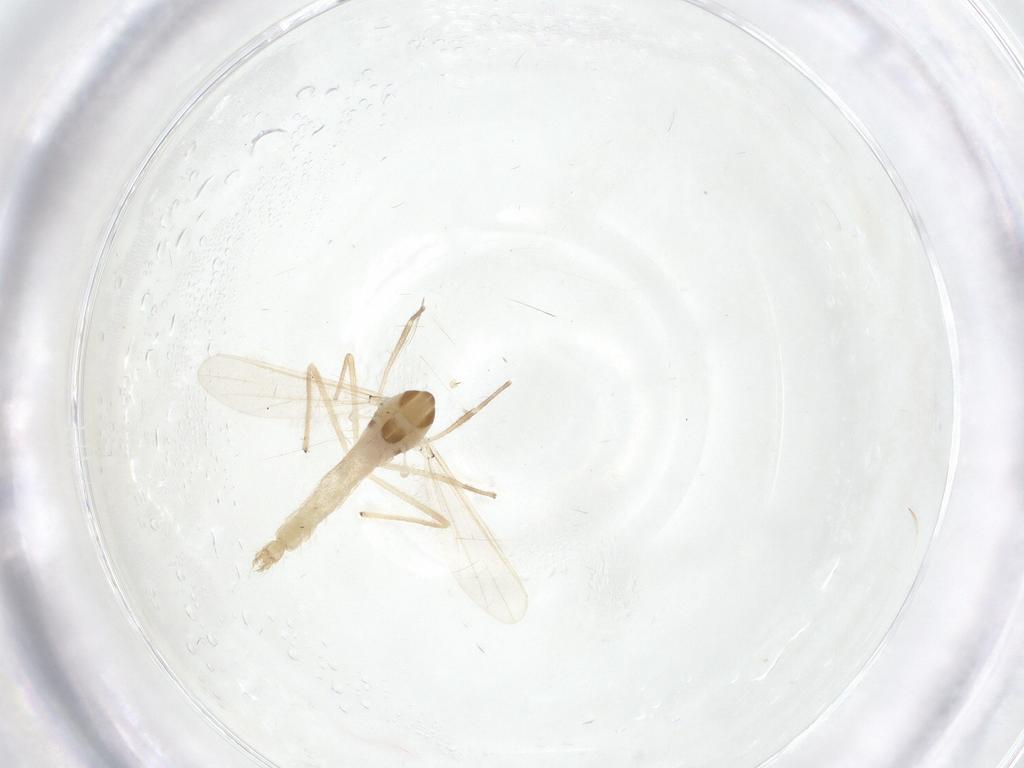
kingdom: Animalia
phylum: Arthropoda
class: Insecta
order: Diptera
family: Chironomidae
